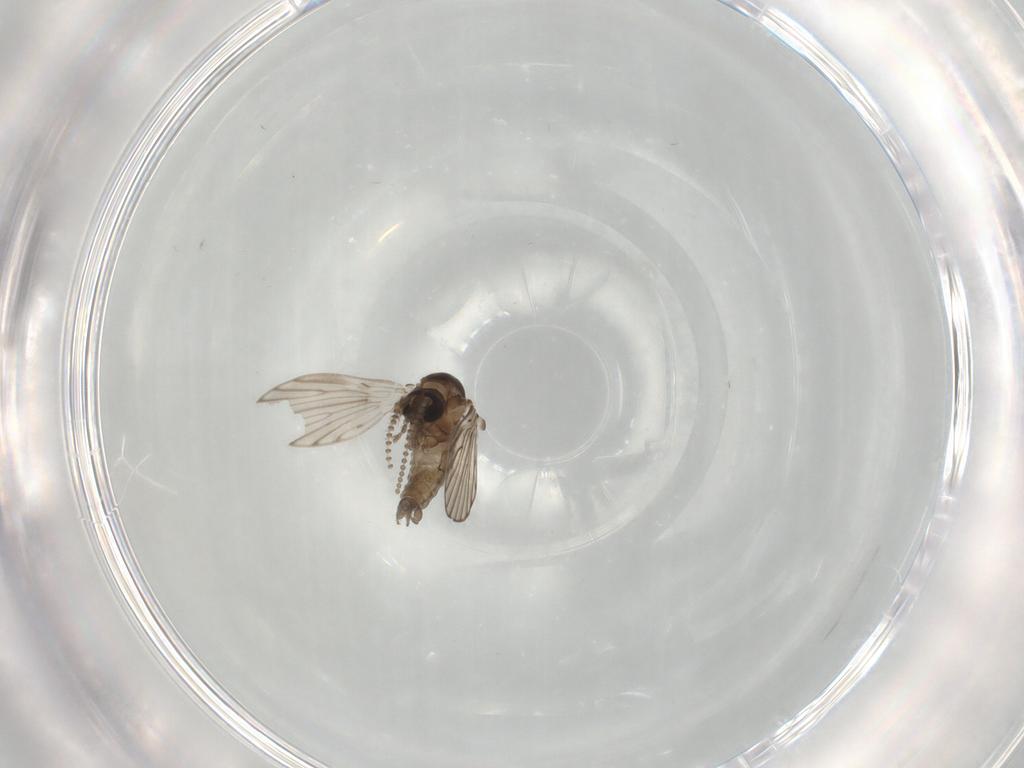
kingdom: Animalia
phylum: Arthropoda
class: Insecta
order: Diptera
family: Psychodidae
